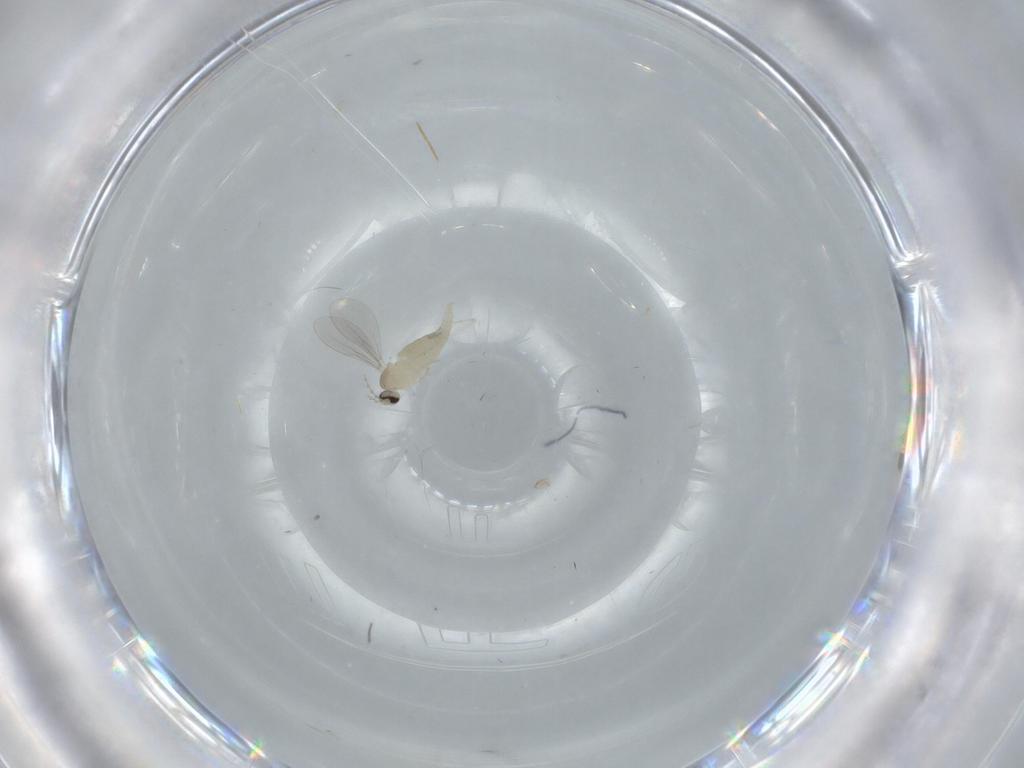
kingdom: Animalia
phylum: Arthropoda
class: Insecta
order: Diptera
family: Cecidomyiidae
